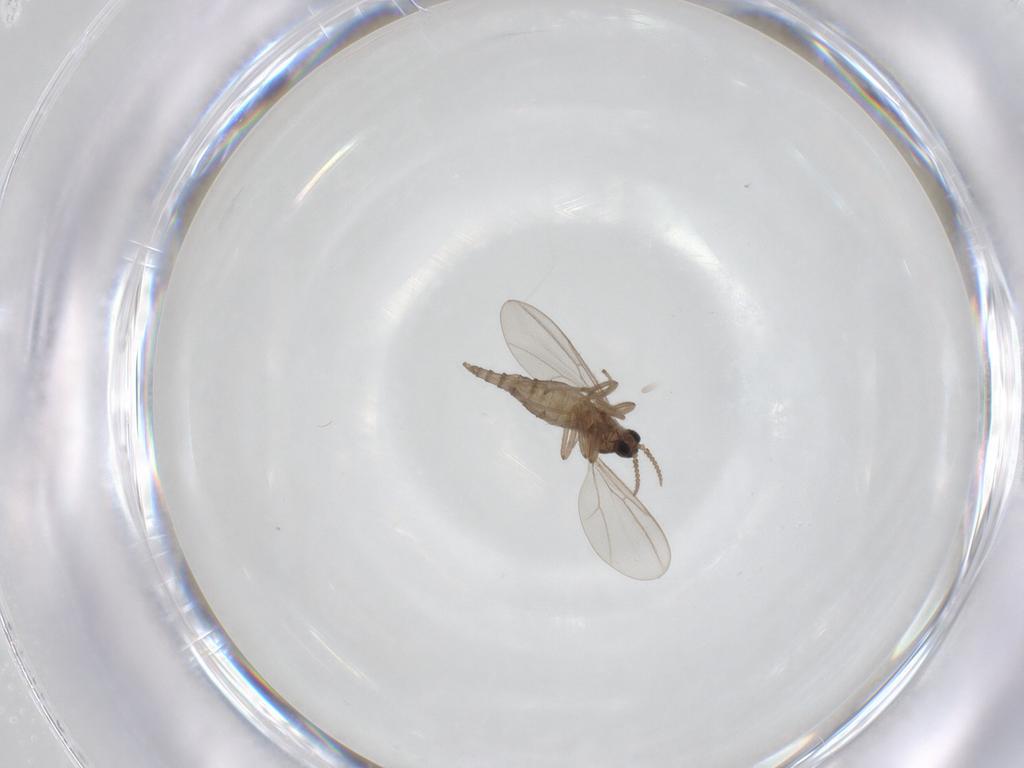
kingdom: Animalia
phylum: Arthropoda
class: Insecta
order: Diptera
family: Cecidomyiidae
